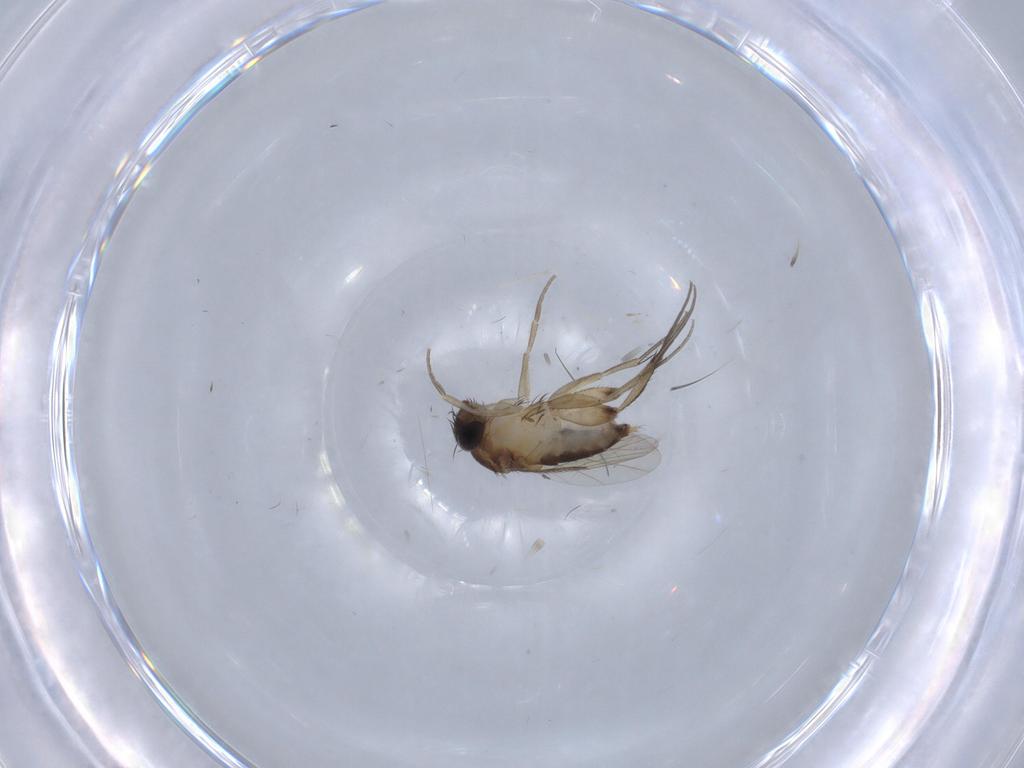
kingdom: Animalia
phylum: Arthropoda
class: Insecta
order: Diptera
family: Phoridae
